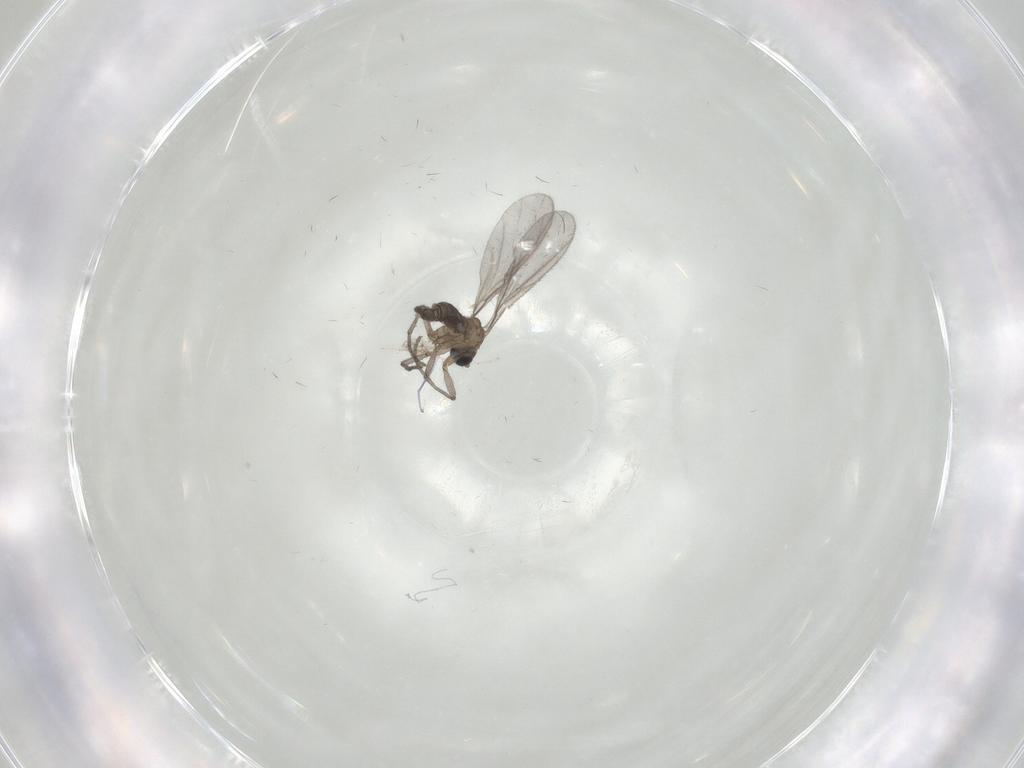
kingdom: Animalia
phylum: Arthropoda
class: Insecta
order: Diptera
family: Sciaridae
